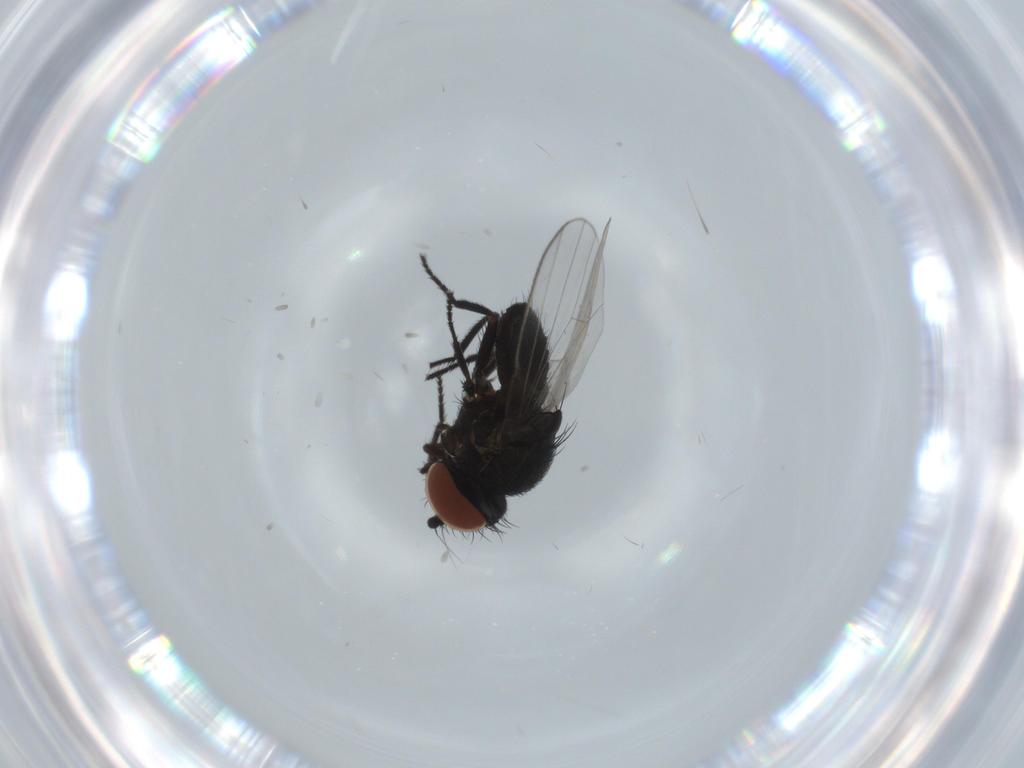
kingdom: Animalia
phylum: Arthropoda
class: Insecta
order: Diptera
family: Milichiidae
